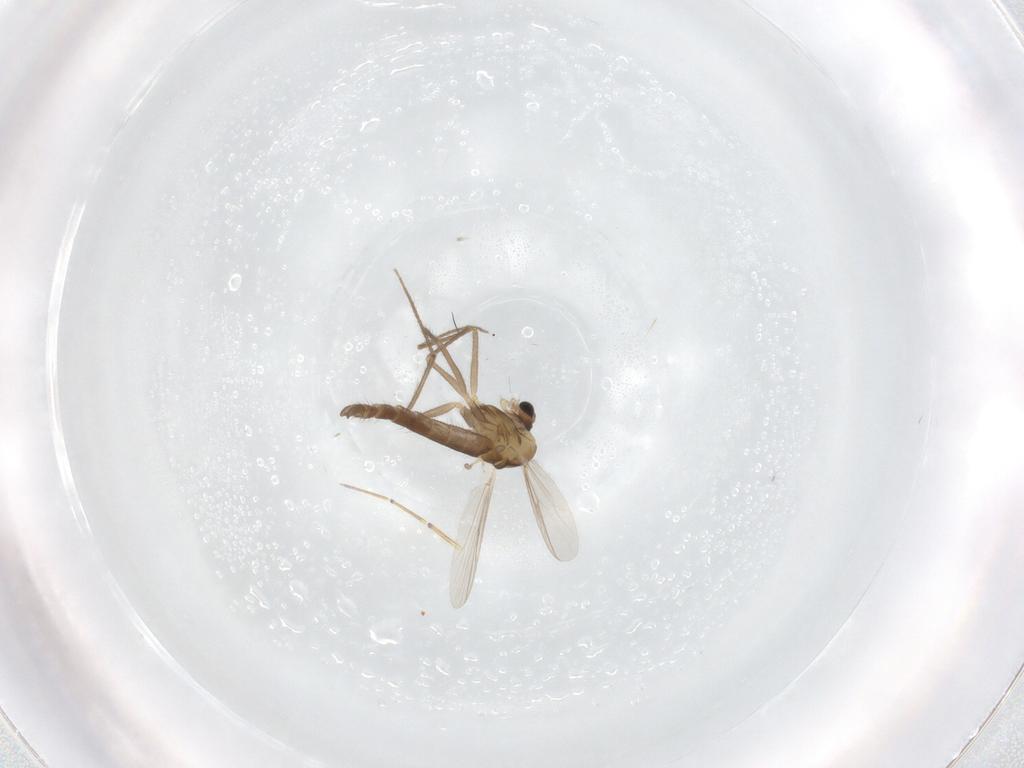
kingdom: Animalia
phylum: Arthropoda
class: Insecta
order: Diptera
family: Chironomidae
